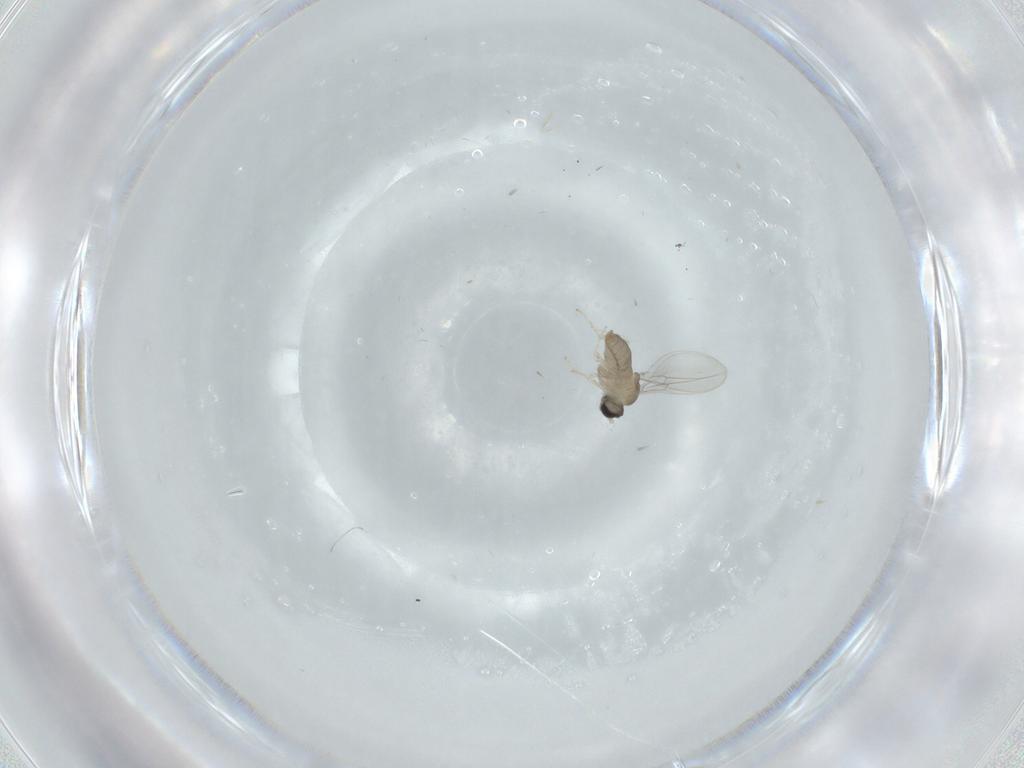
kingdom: Animalia
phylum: Arthropoda
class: Insecta
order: Diptera
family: Cecidomyiidae
